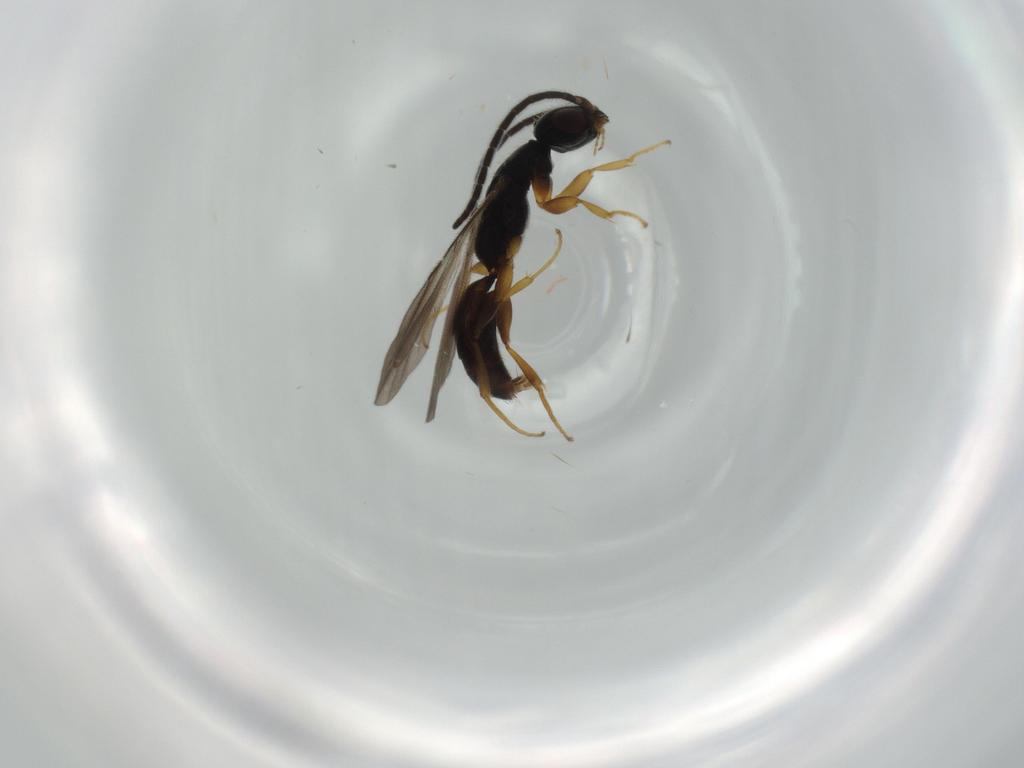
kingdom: Animalia
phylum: Arthropoda
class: Insecta
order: Hymenoptera
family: Bethylidae
